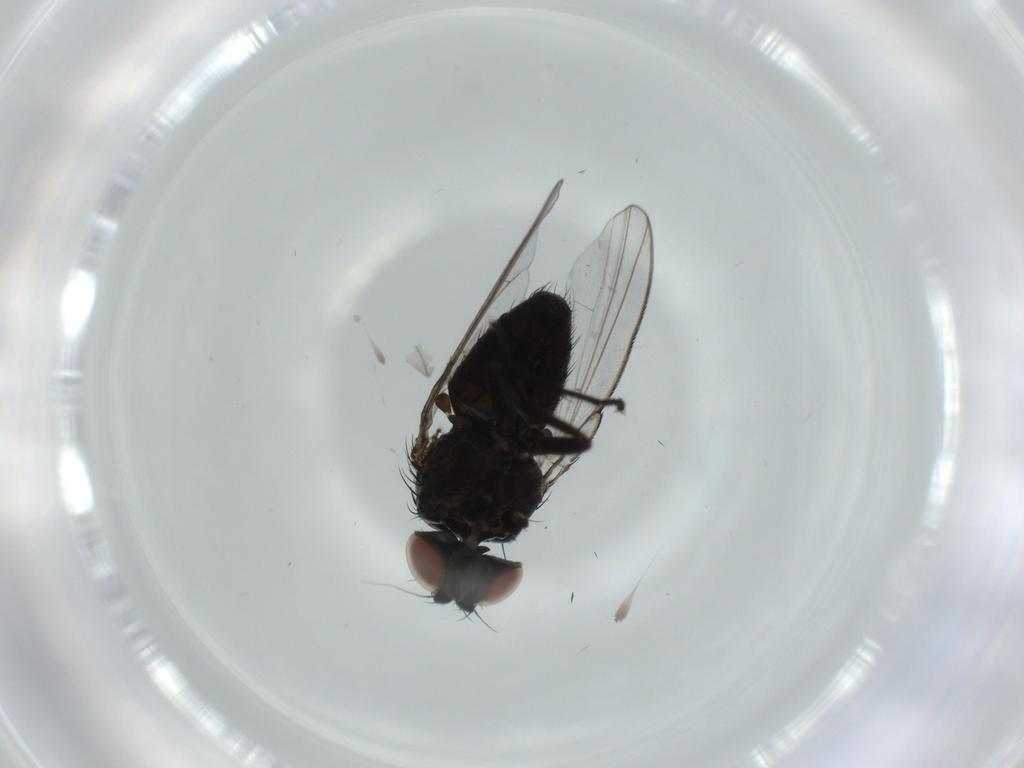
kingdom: Animalia
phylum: Arthropoda
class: Insecta
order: Diptera
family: Milichiidae
